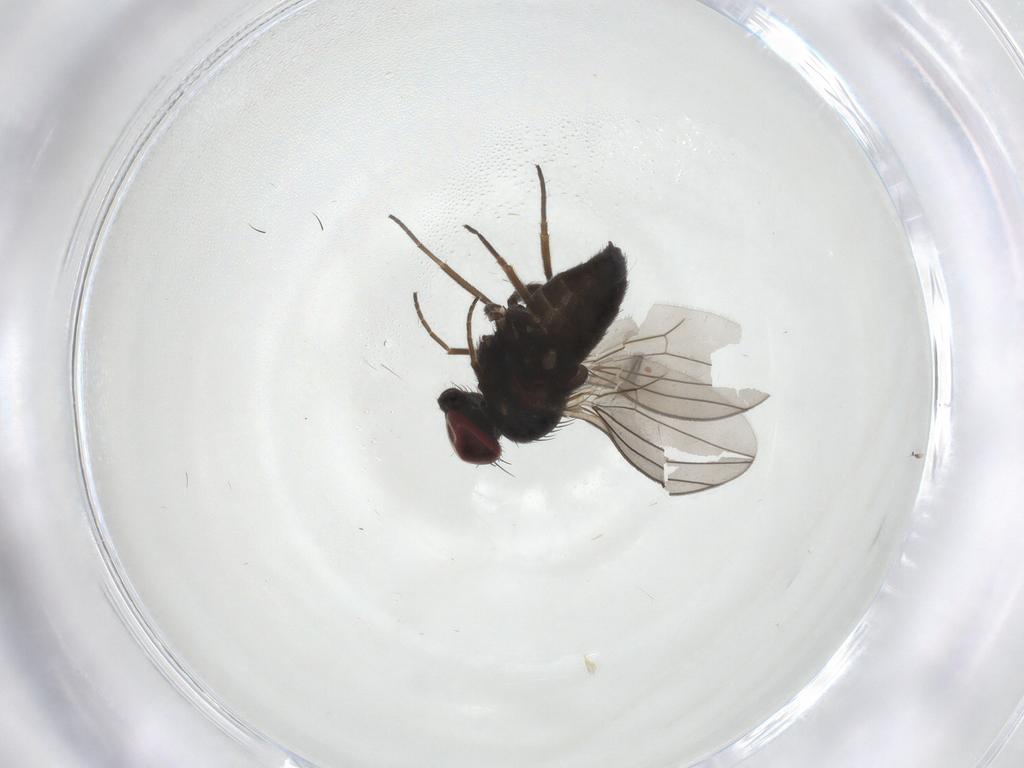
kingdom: Animalia
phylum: Arthropoda
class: Insecta
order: Diptera
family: Dolichopodidae
